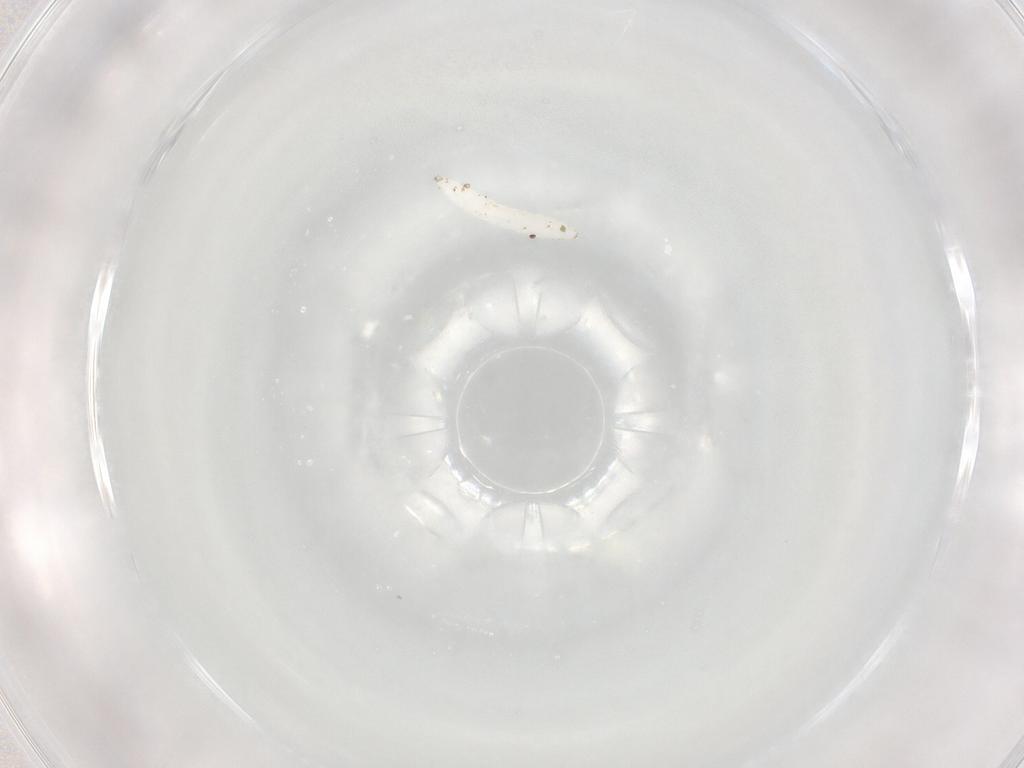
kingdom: Animalia
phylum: Arthropoda
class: Insecta
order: Diptera
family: Cecidomyiidae
